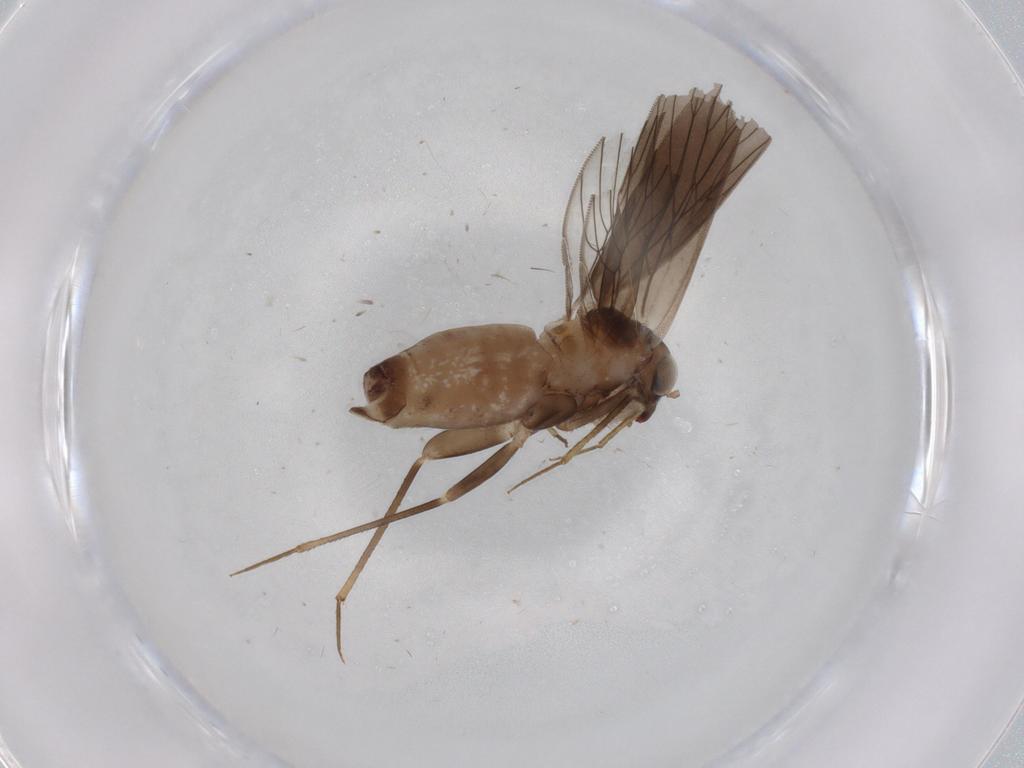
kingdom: Animalia
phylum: Arthropoda
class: Insecta
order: Psocodea
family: Lepidopsocidae
